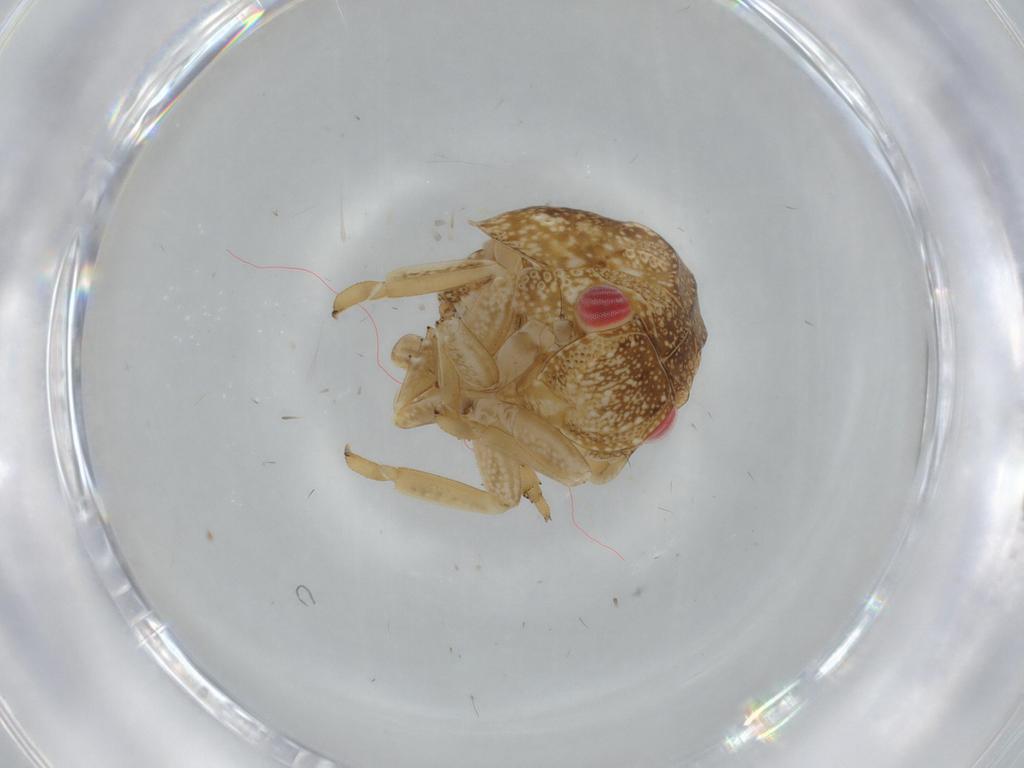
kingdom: Animalia
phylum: Arthropoda
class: Insecta
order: Hemiptera
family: Acanaloniidae
